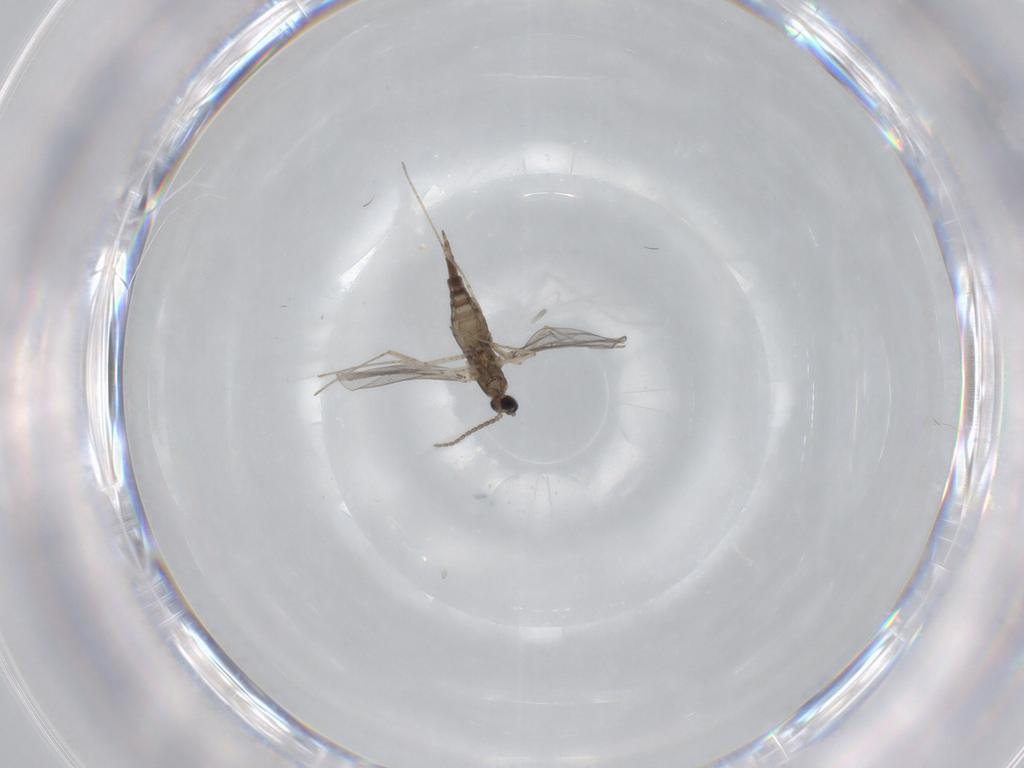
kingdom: Animalia
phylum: Arthropoda
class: Insecta
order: Diptera
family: Cecidomyiidae
